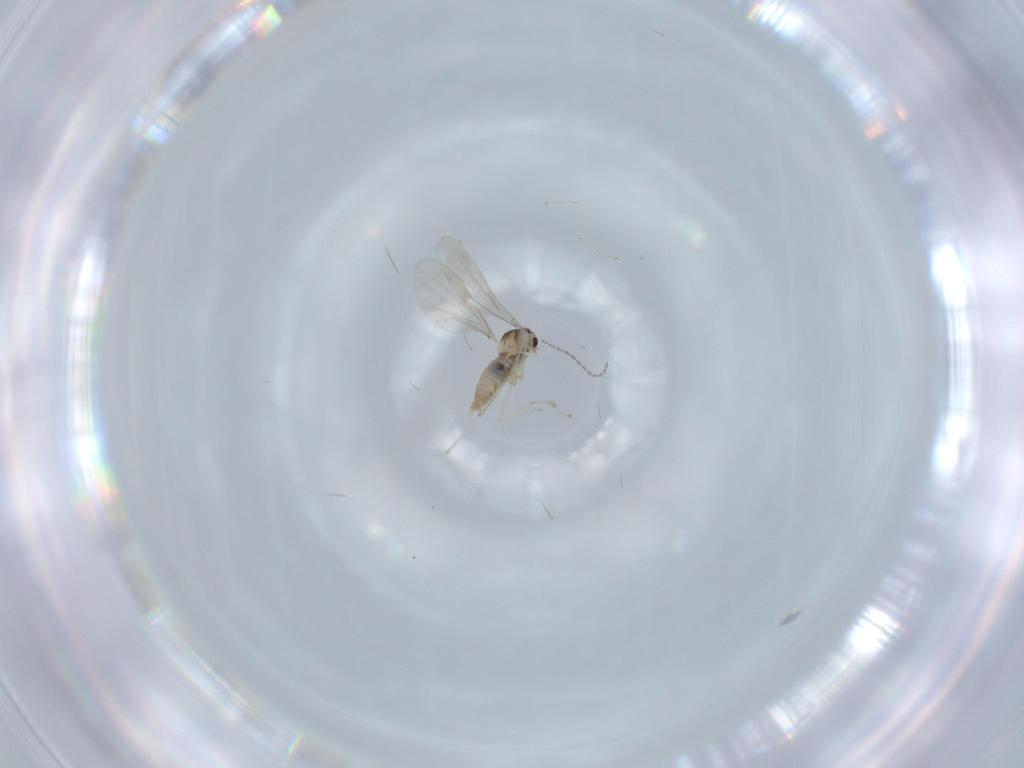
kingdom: Animalia
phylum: Arthropoda
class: Insecta
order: Diptera
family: Cecidomyiidae
